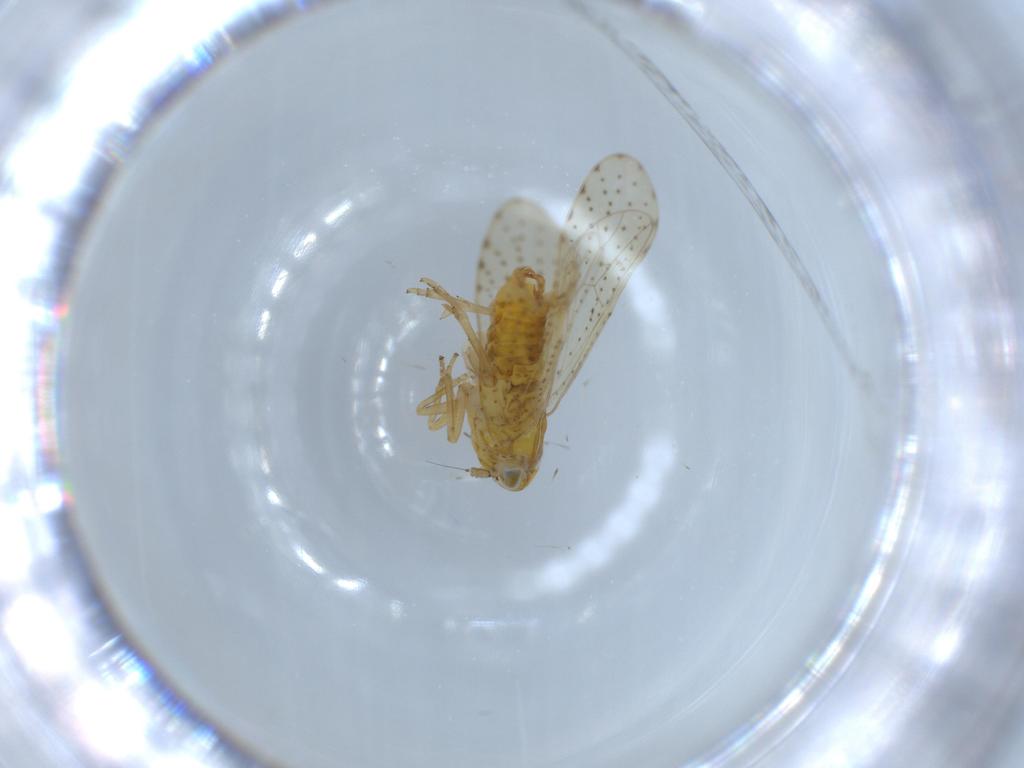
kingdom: Animalia
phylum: Arthropoda
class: Insecta
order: Hemiptera
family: Delphacidae
